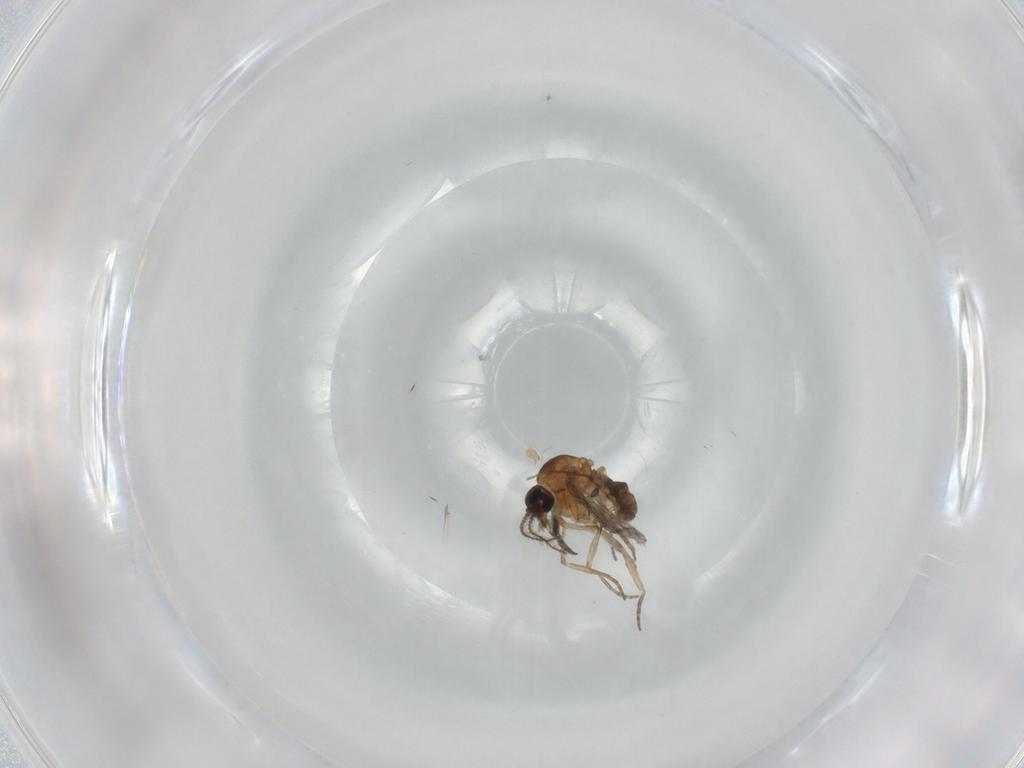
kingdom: Animalia
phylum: Arthropoda
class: Insecta
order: Diptera
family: Ceratopogonidae
